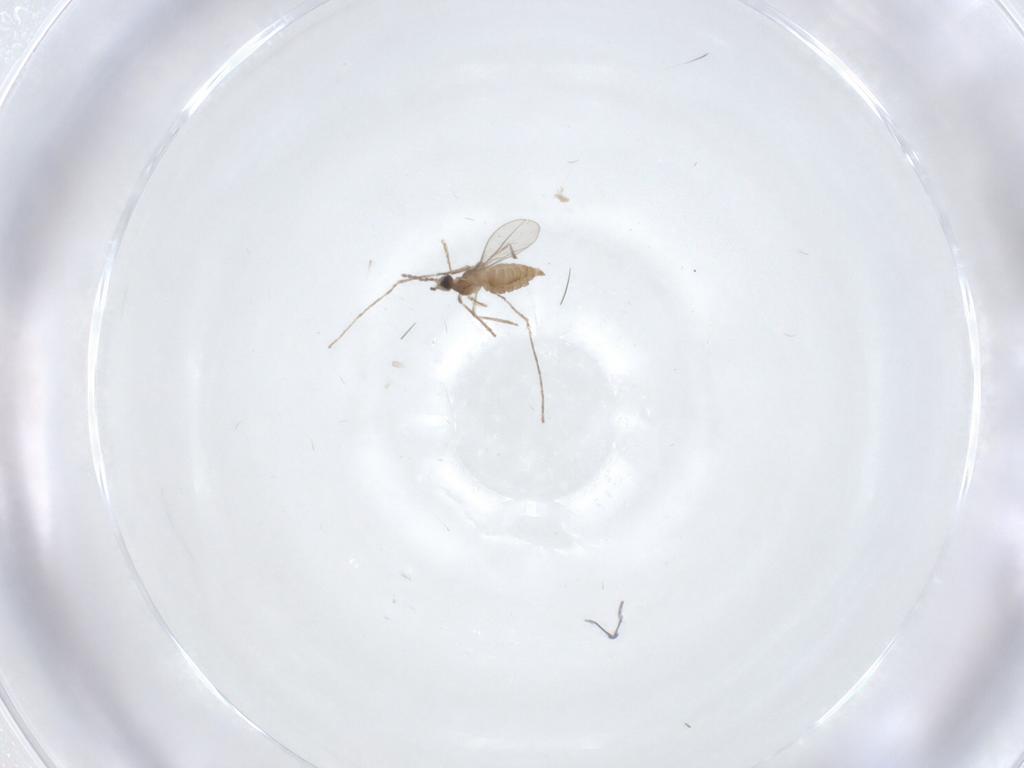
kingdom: Animalia
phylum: Arthropoda
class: Insecta
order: Diptera
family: Cecidomyiidae
